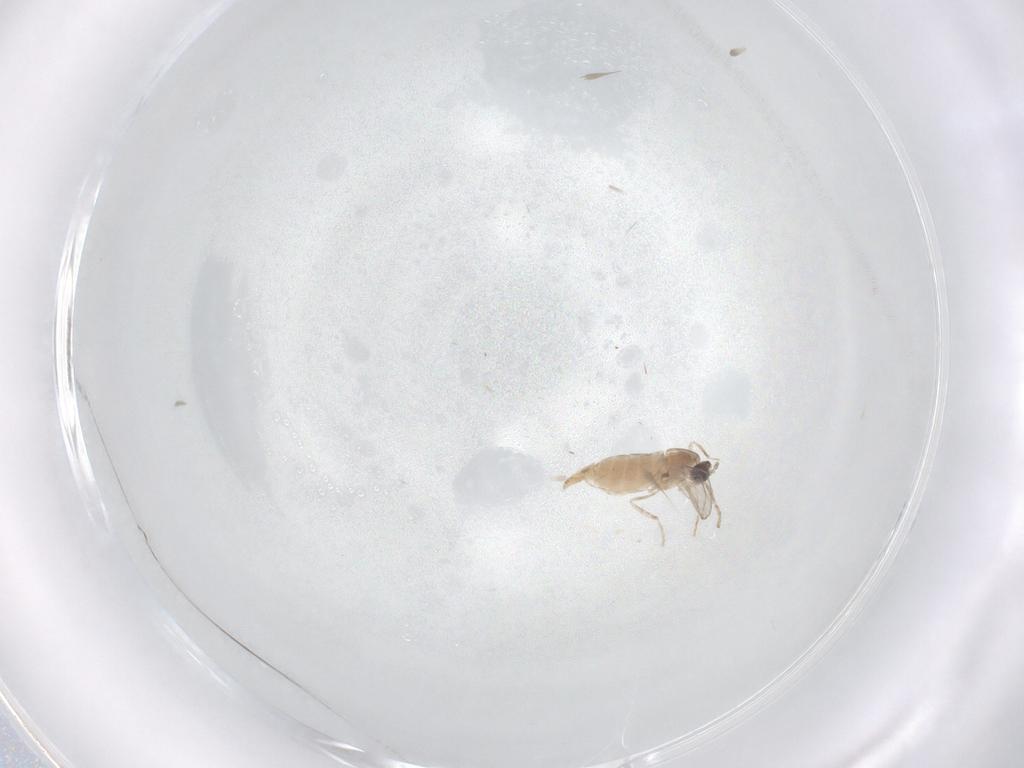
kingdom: Animalia
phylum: Arthropoda
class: Insecta
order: Diptera
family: Cecidomyiidae
